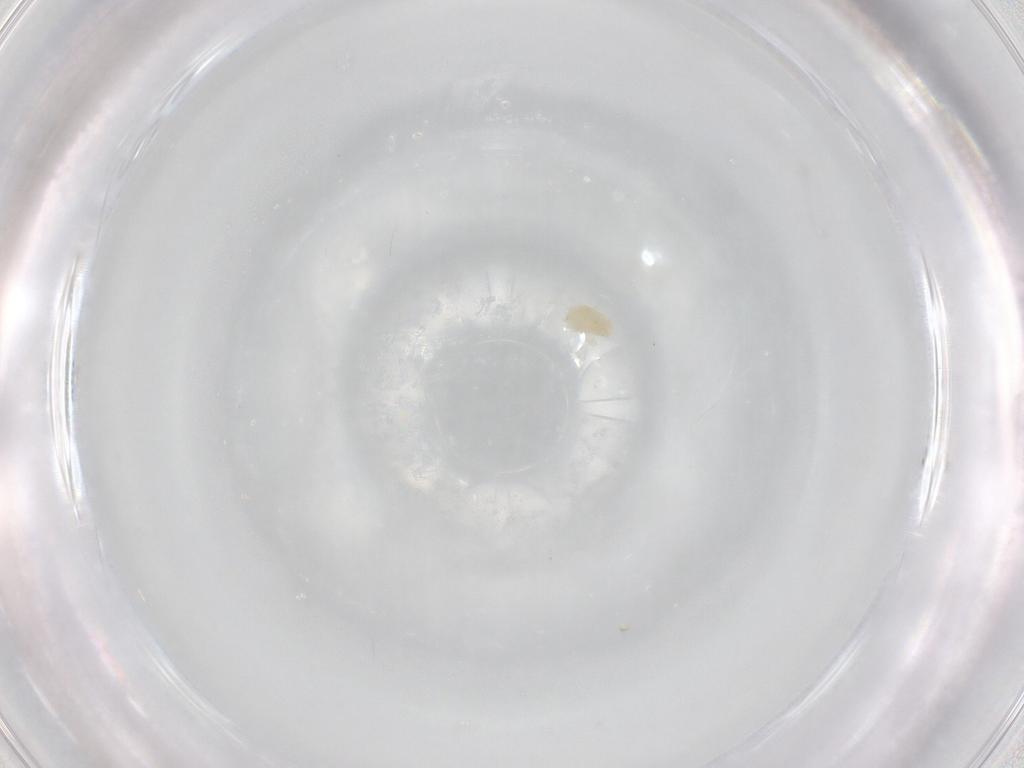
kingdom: Animalia
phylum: Arthropoda
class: Arachnida
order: Trombidiformes
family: Eupodidae
